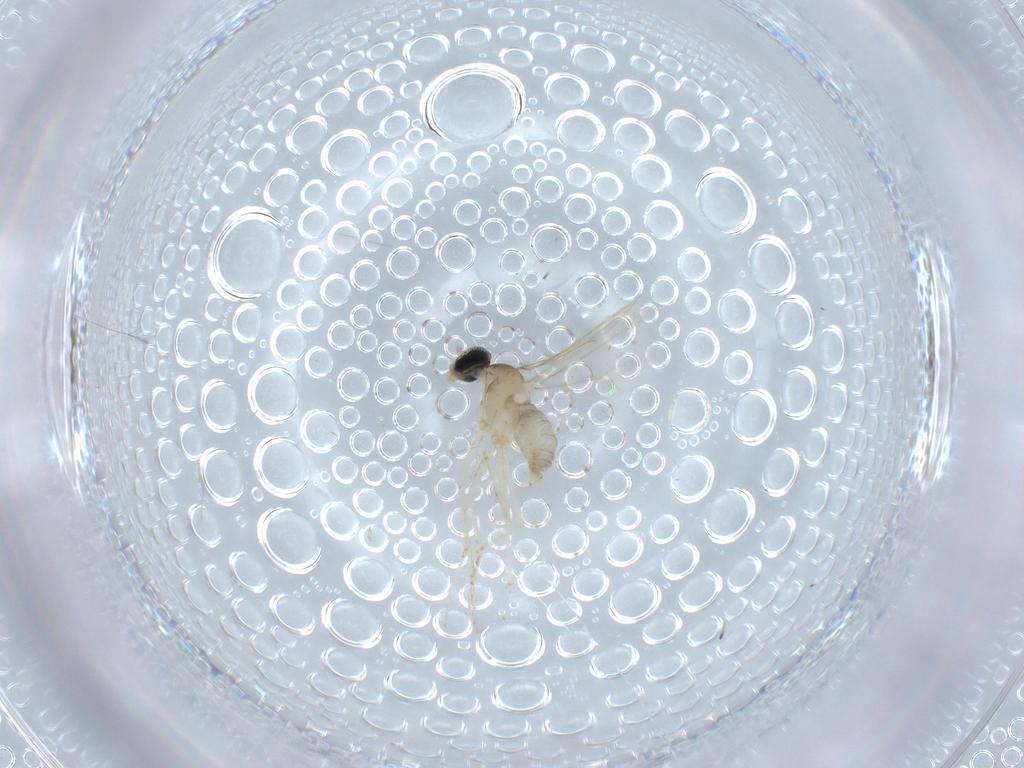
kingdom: Animalia
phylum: Arthropoda
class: Insecta
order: Diptera
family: Cecidomyiidae
